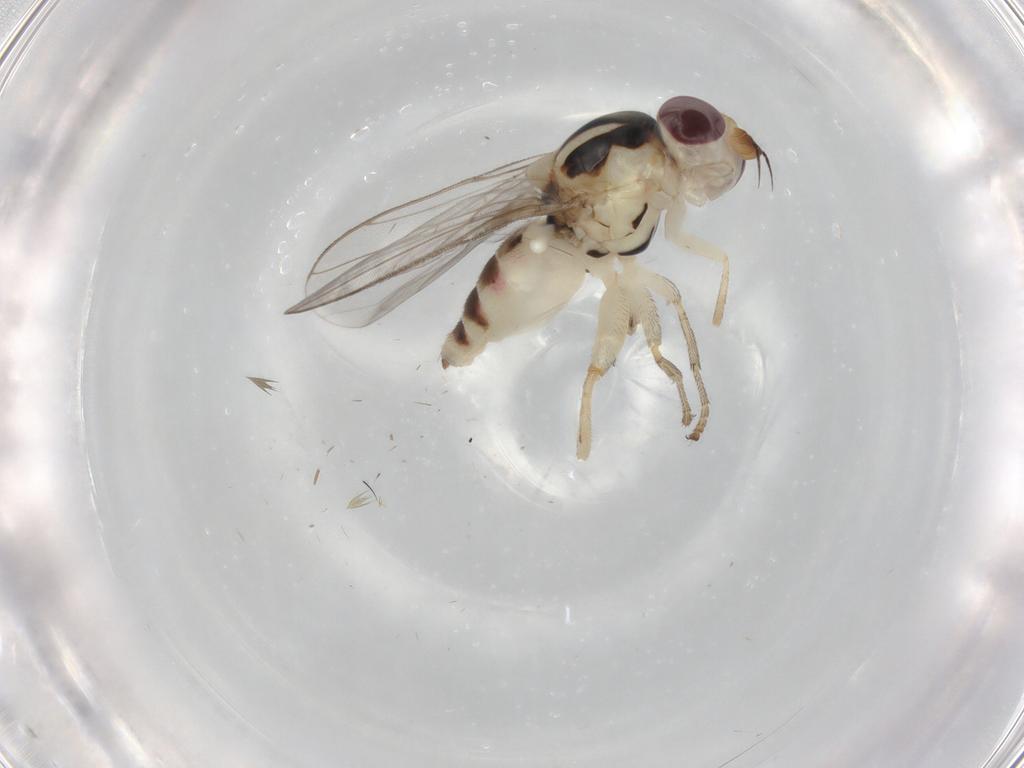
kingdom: Animalia
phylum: Arthropoda
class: Insecta
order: Diptera
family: Chloropidae
